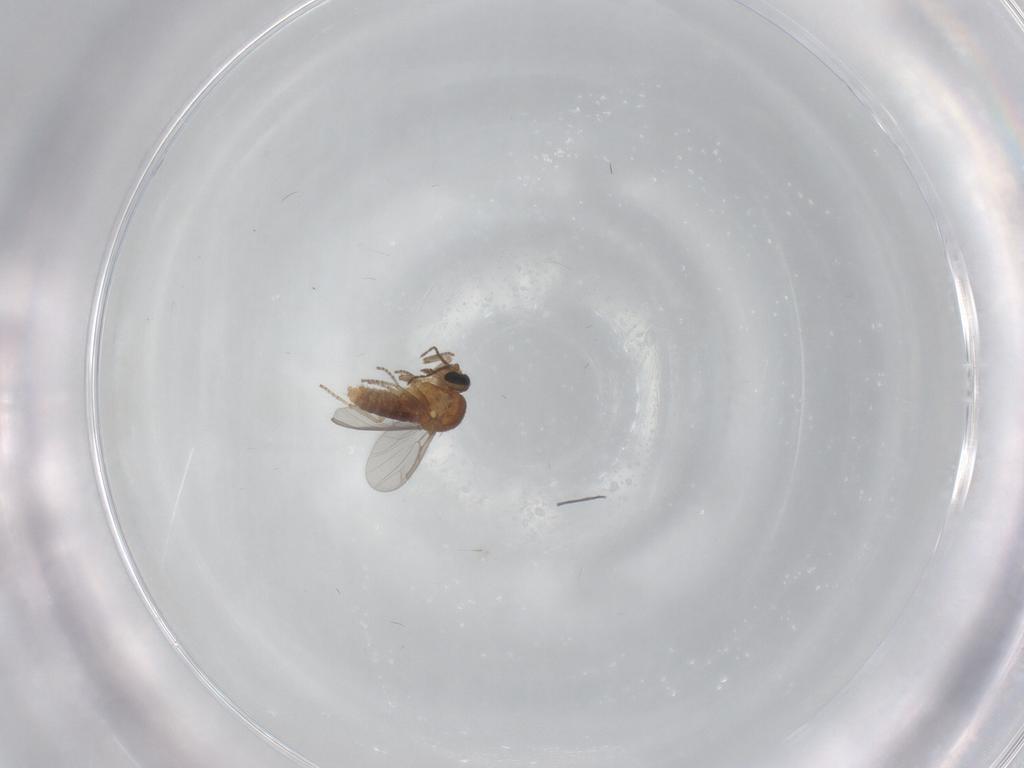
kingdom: Animalia
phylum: Arthropoda
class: Insecta
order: Diptera
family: Ceratopogonidae
